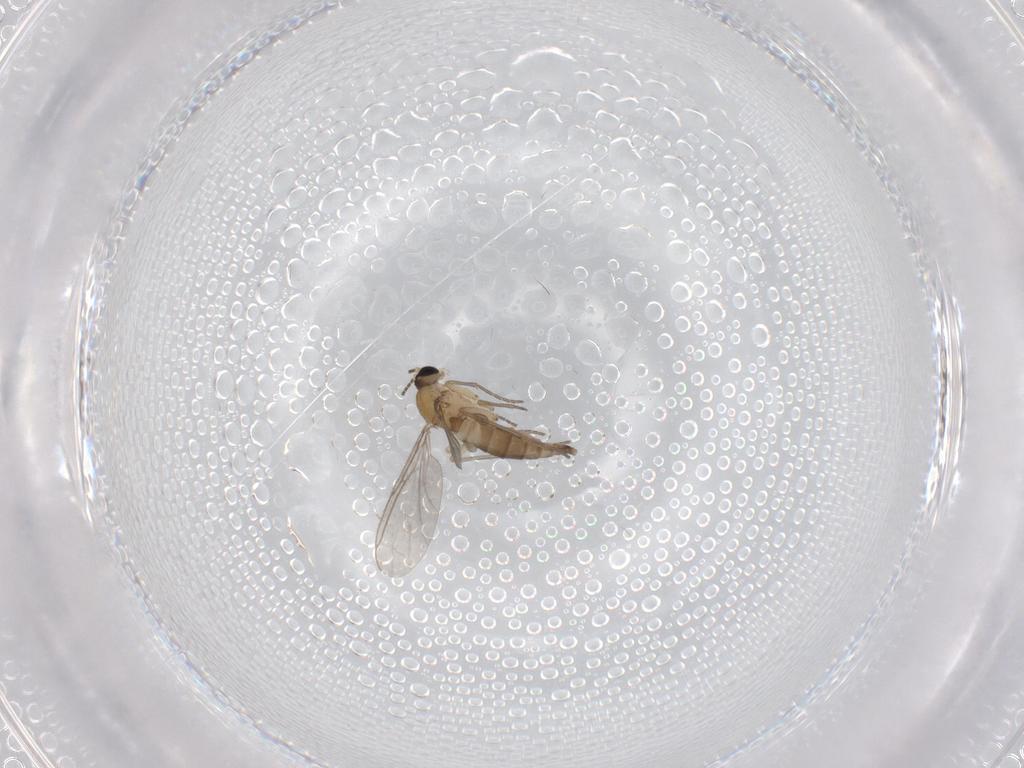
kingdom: Animalia
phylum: Arthropoda
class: Insecta
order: Diptera
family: Sciaridae
